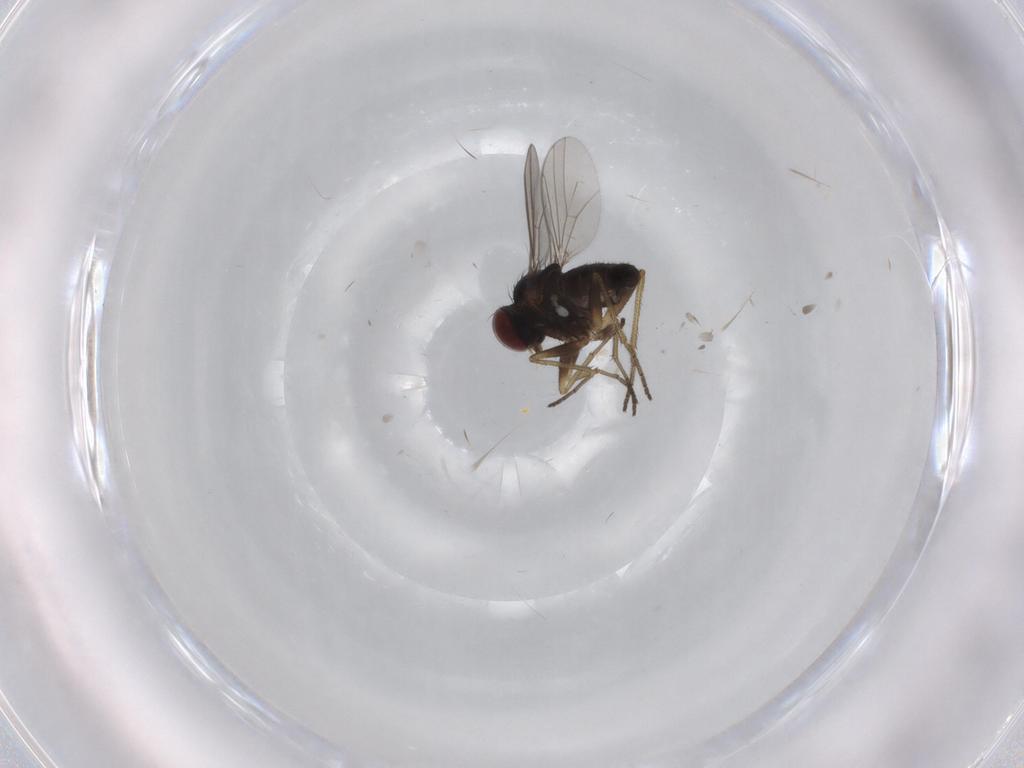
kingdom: Animalia
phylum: Arthropoda
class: Insecta
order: Diptera
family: Dolichopodidae
